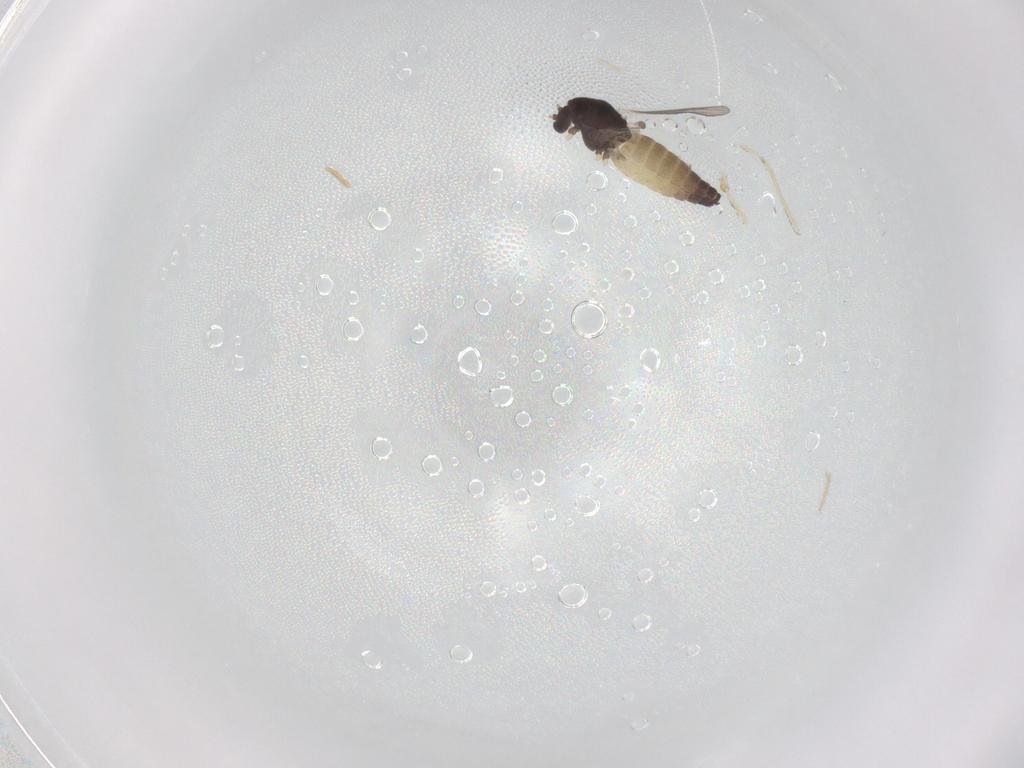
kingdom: Animalia
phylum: Arthropoda
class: Insecta
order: Diptera
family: Chironomidae
